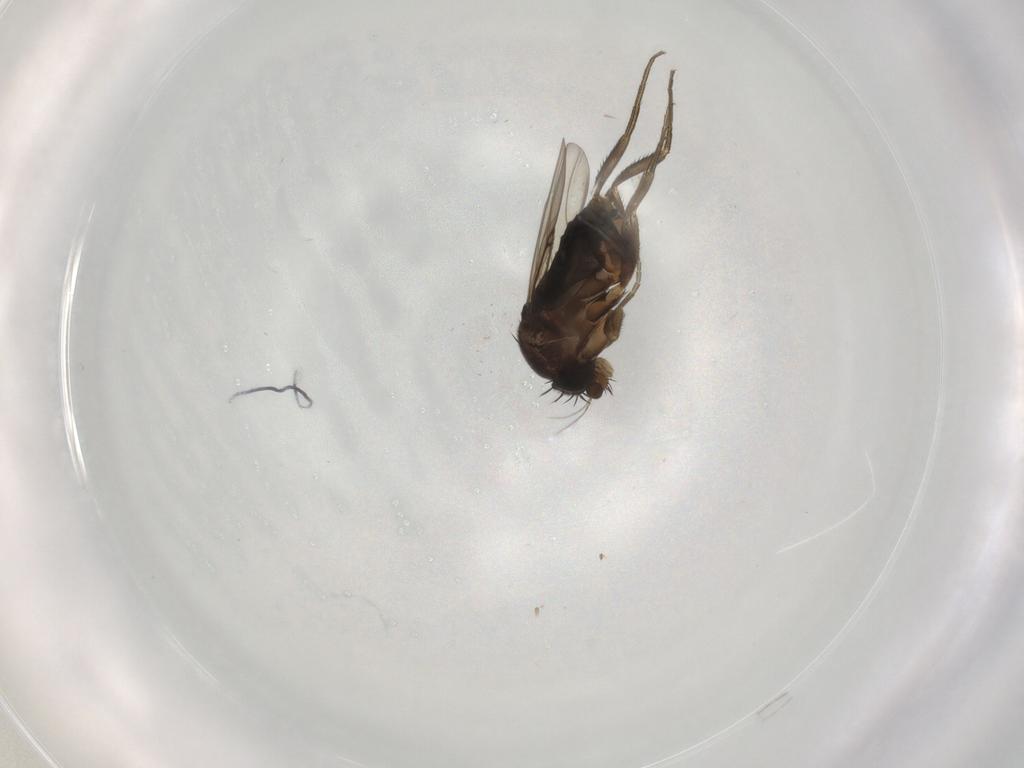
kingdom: Animalia
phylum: Arthropoda
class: Insecta
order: Diptera
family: Phoridae
